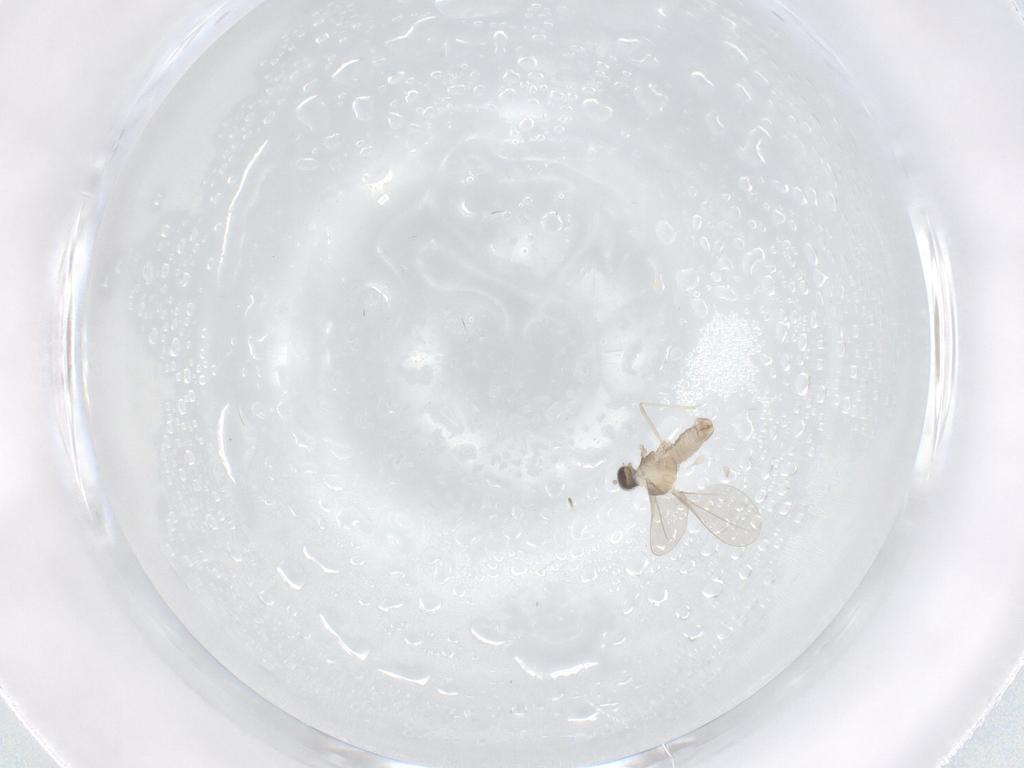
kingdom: Animalia
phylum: Arthropoda
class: Insecta
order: Diptera
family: Cecidomyiidae
